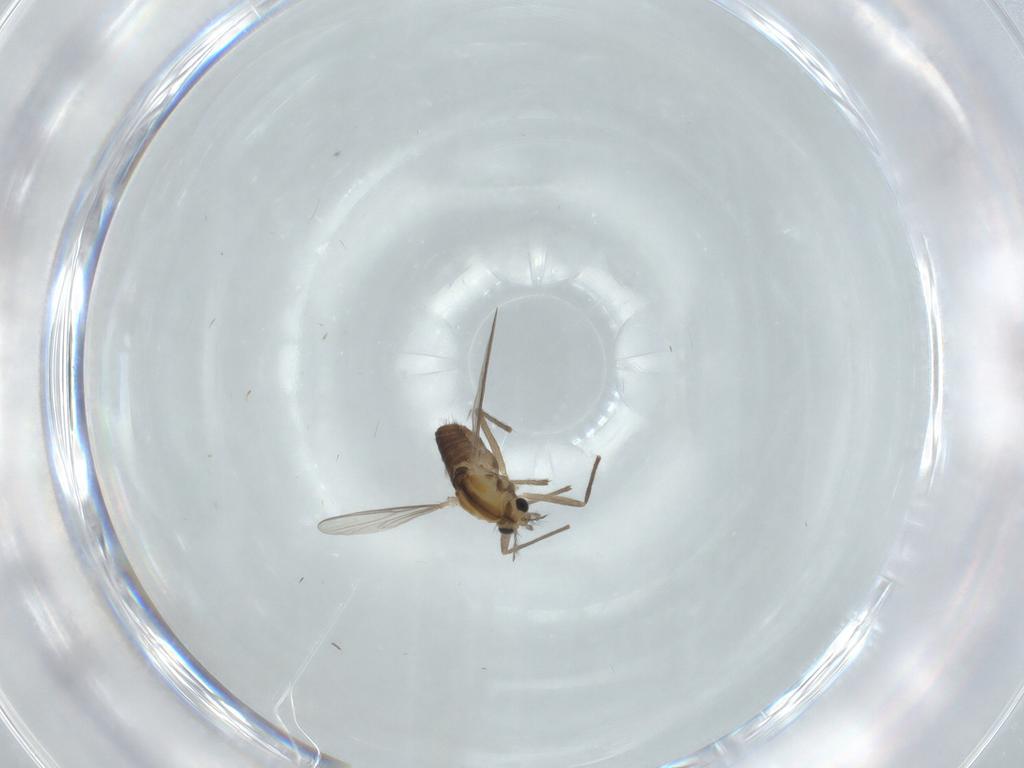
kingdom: Animalia
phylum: Arthropoda
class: Insecta
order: Diptera
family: Chironomidae
